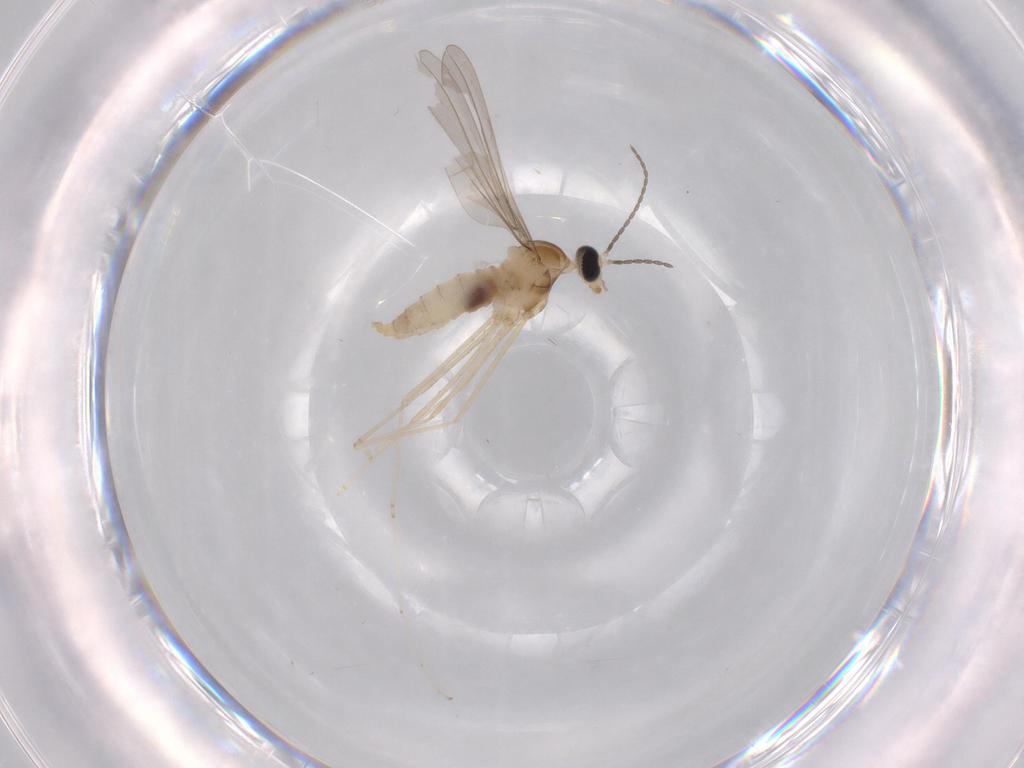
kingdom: Animalia
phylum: Arthropoda
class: Insecta
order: Diptera
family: Cecidomyiidae
